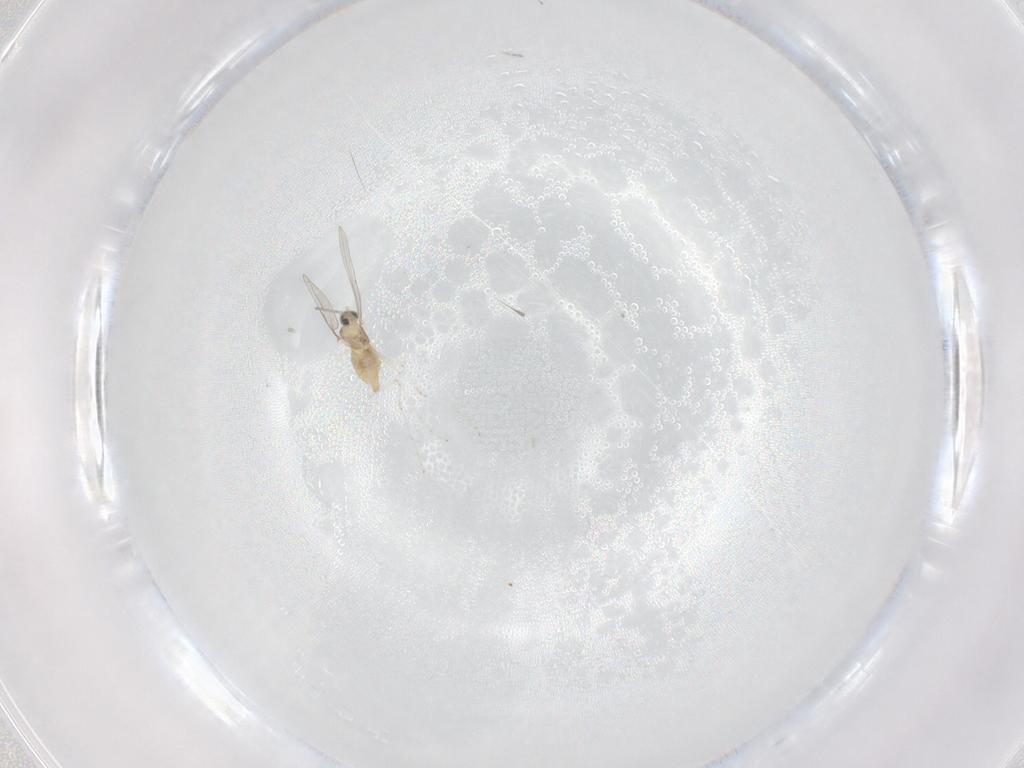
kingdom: Animalia
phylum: Arthropoda
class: Insecta
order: Diptera
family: Cecidomyiidae
